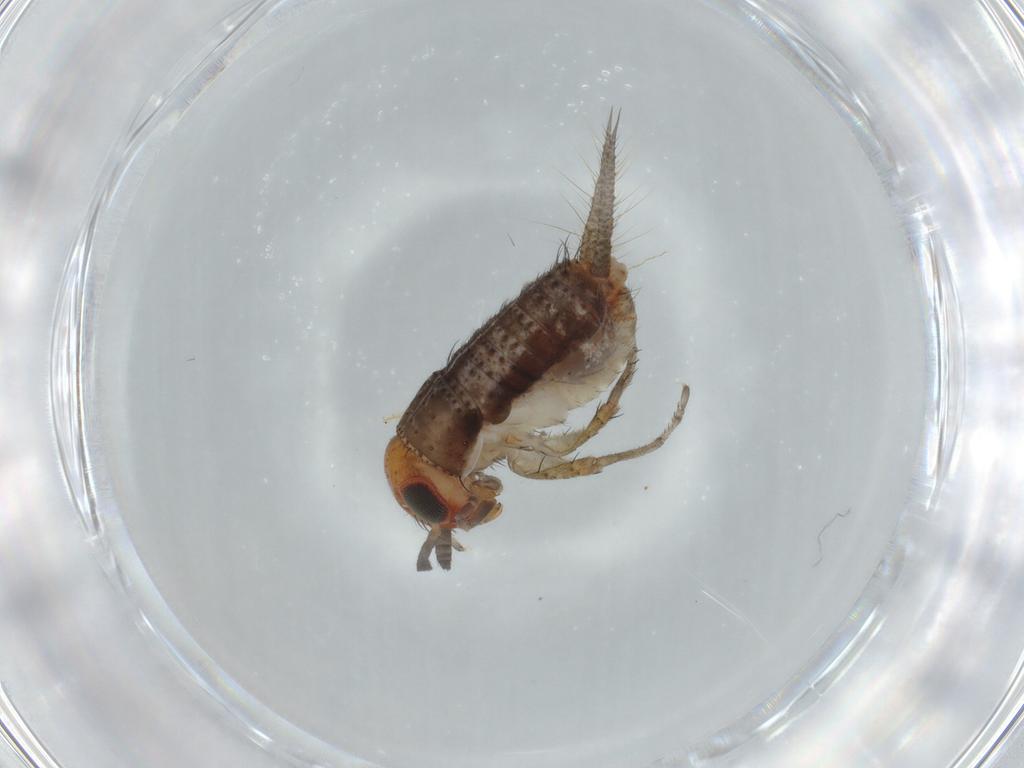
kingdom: Animalia
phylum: Arthropoda
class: Insecta
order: Orthoptera
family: Trigonidiidae
